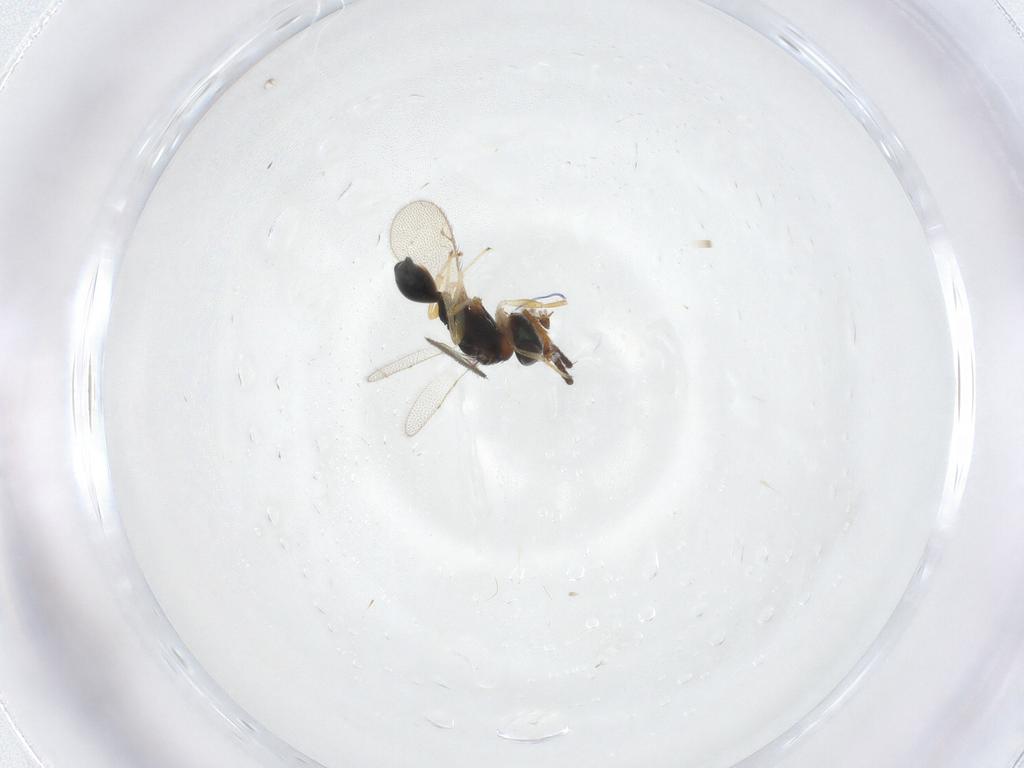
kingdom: Animalia
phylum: Arthropoda
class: Insecta
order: Hymenoptera
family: Diparidae
